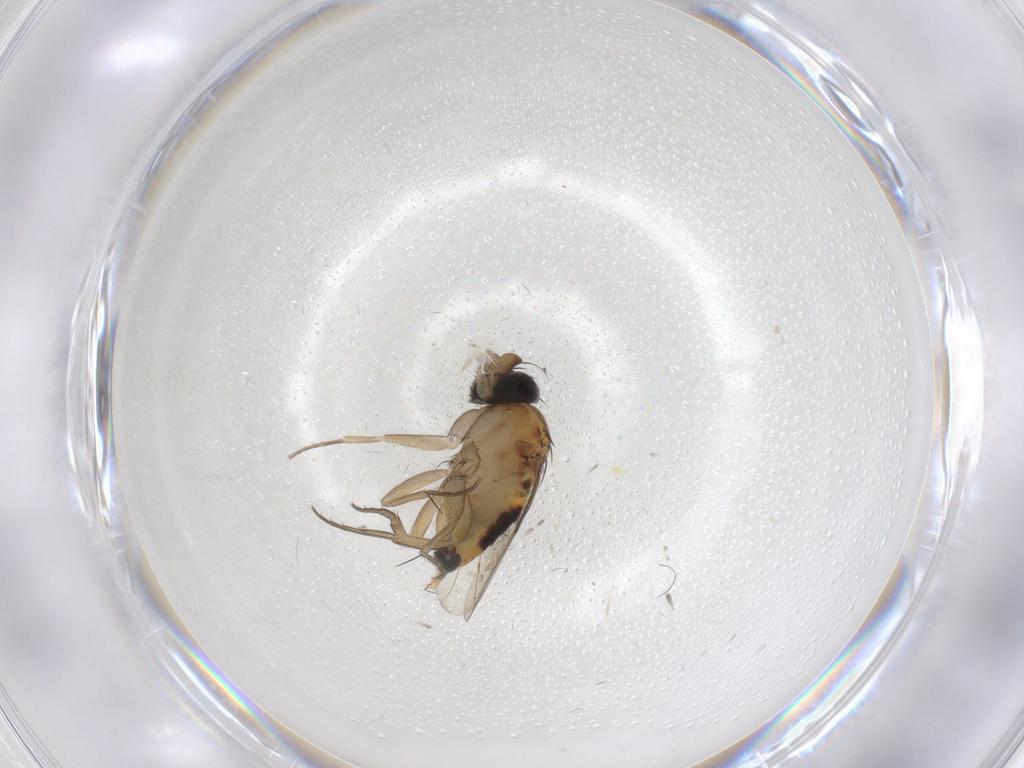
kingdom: Animalia
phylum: Arthropoda
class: Insecta
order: Diptera
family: Phoridae
